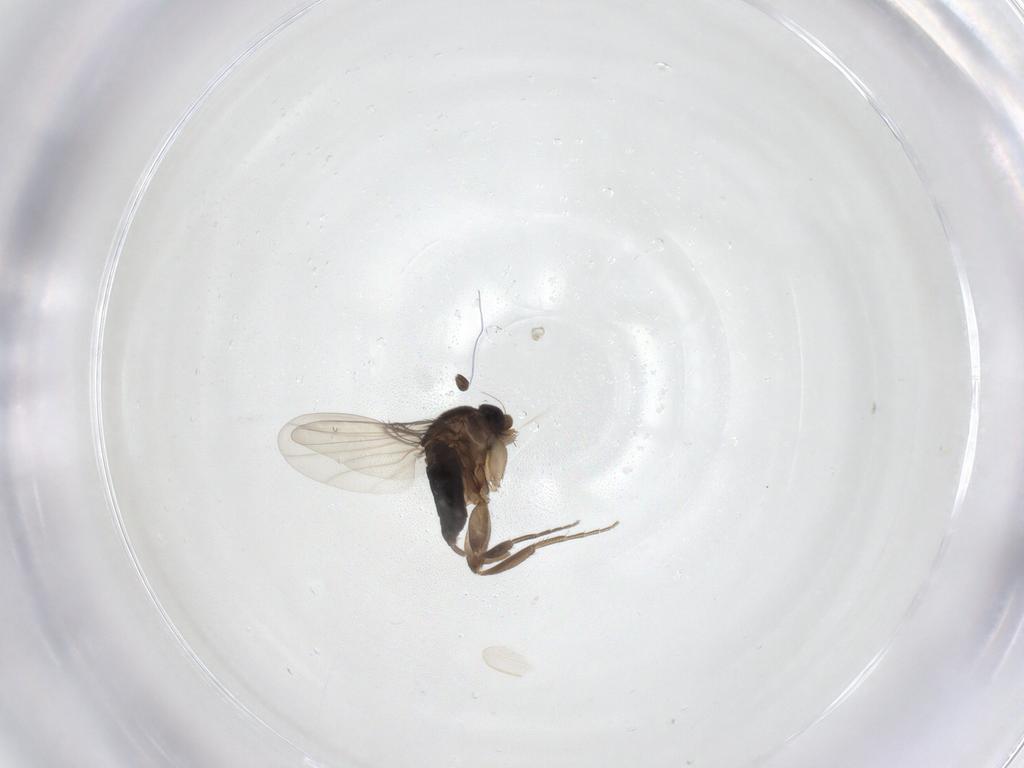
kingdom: Animalia
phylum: Arthropoda
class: Insecta
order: Diptera
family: Phoridae
